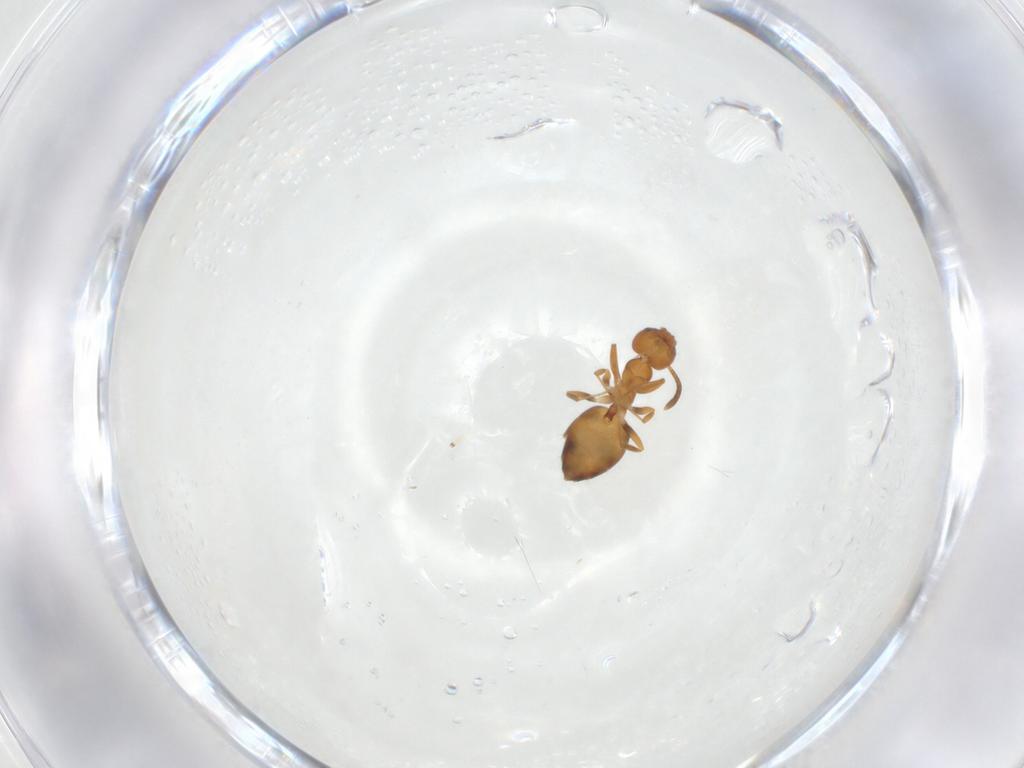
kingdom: Animalia
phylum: Arthropoda
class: Insecta
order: Hymenoptera
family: Formicidae
